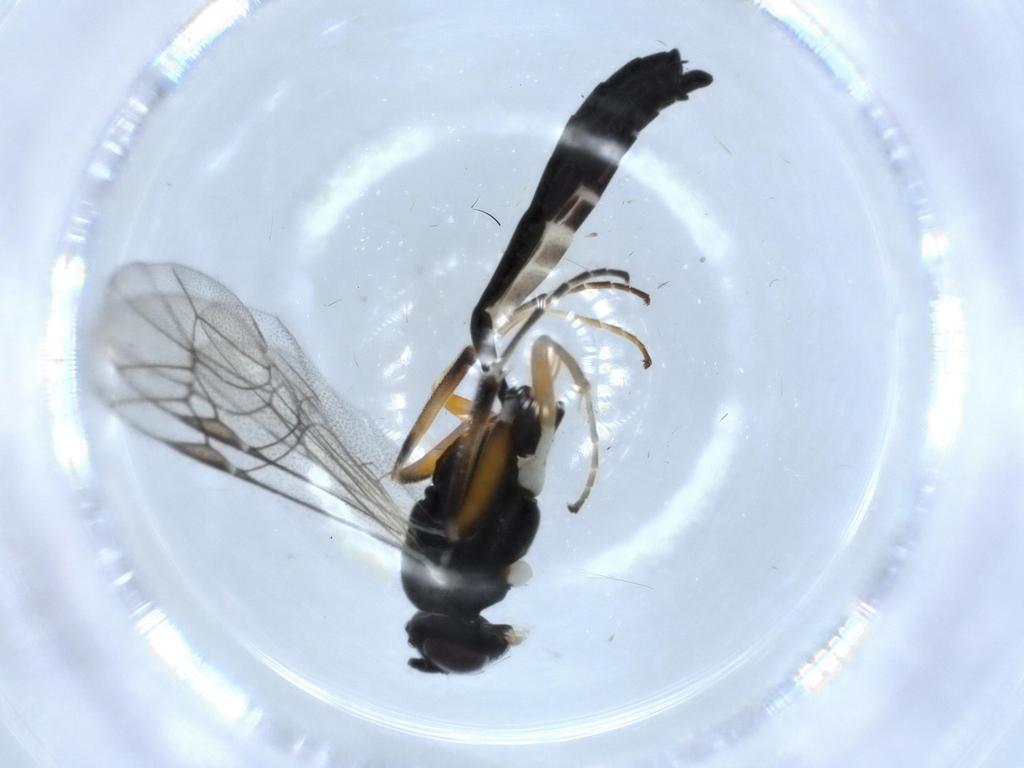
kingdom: Animalia
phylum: Arthropoda
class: Insecta
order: Hymenoptera
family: Ichneumonidae
